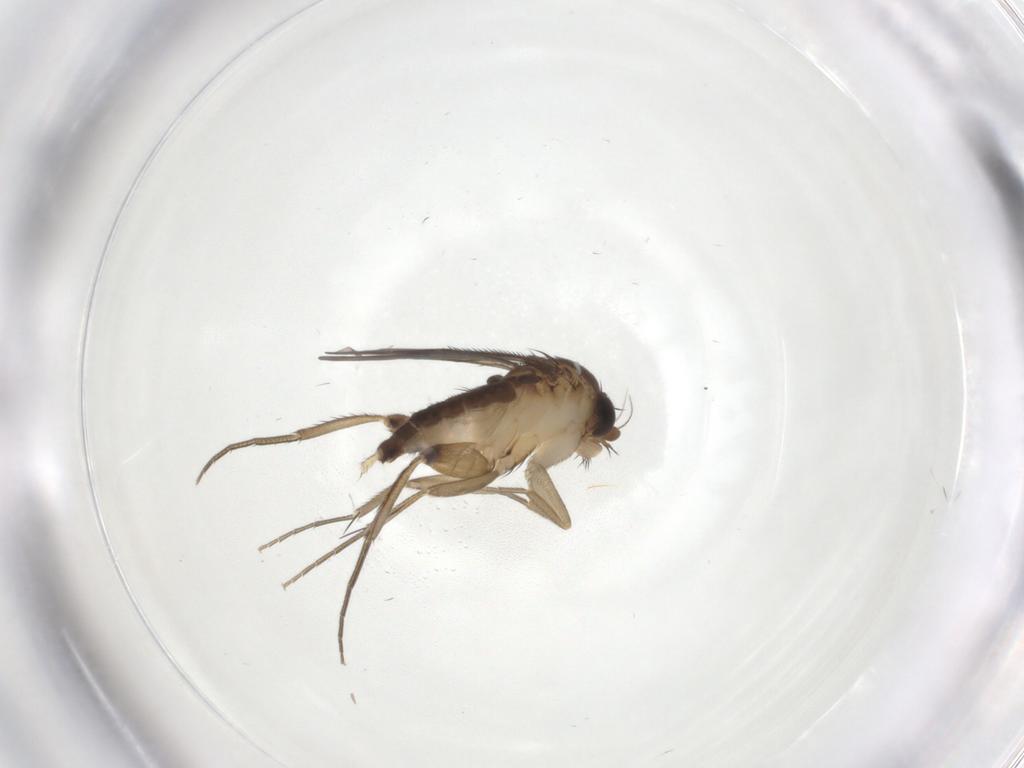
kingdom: Animalia
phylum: Arthropoda
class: Insecta
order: Diptera
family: Phoridae
